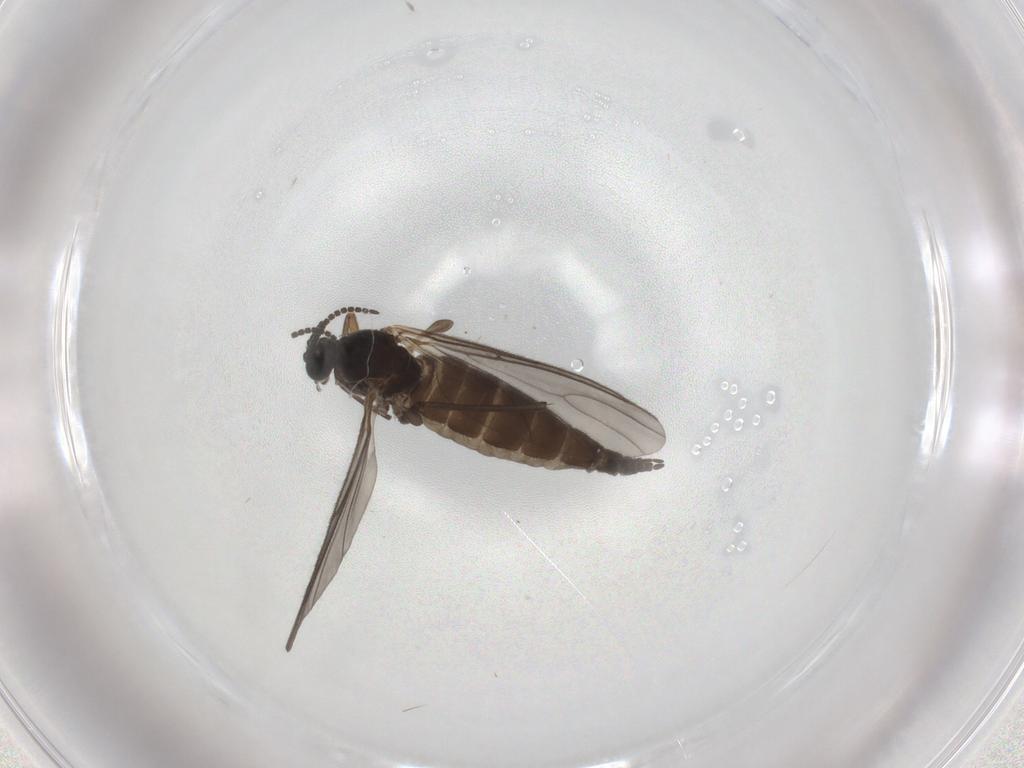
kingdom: Animalia
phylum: Arthropoda
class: Insecta
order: Diptera
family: Sciaridae
